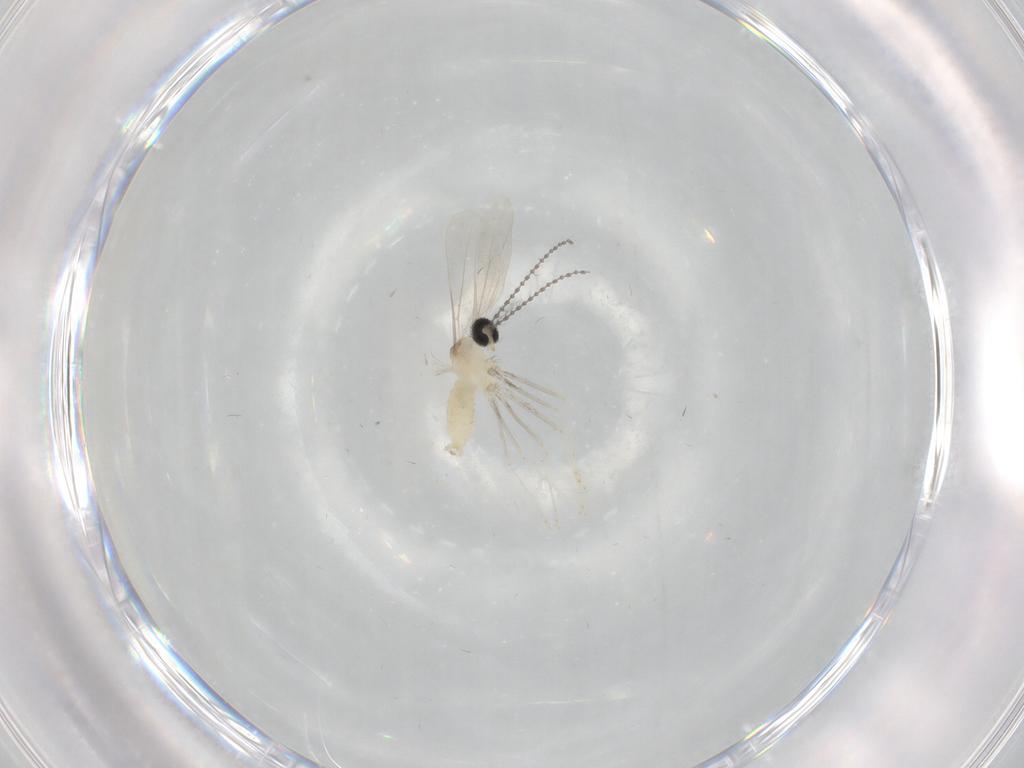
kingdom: Animalia
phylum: Arthropoda
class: Insecta
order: Diptera
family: Cecidomyiidae
